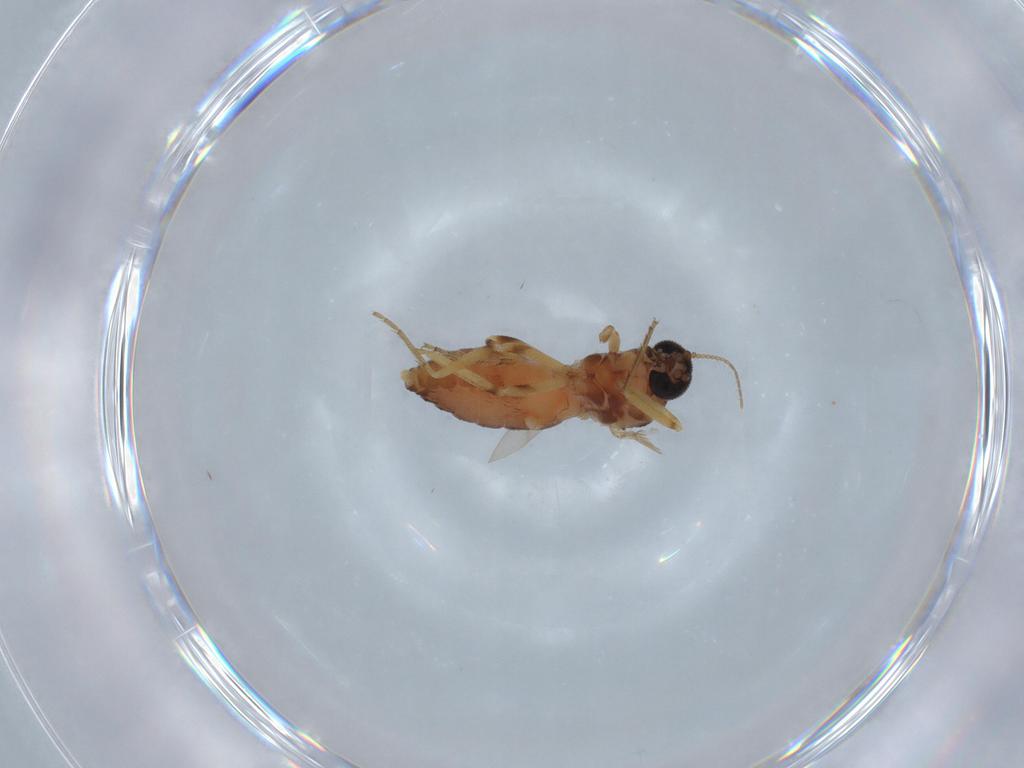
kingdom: Animalia
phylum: Arthropoda
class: Insecta
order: Diptera
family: Ceratopogonidae
